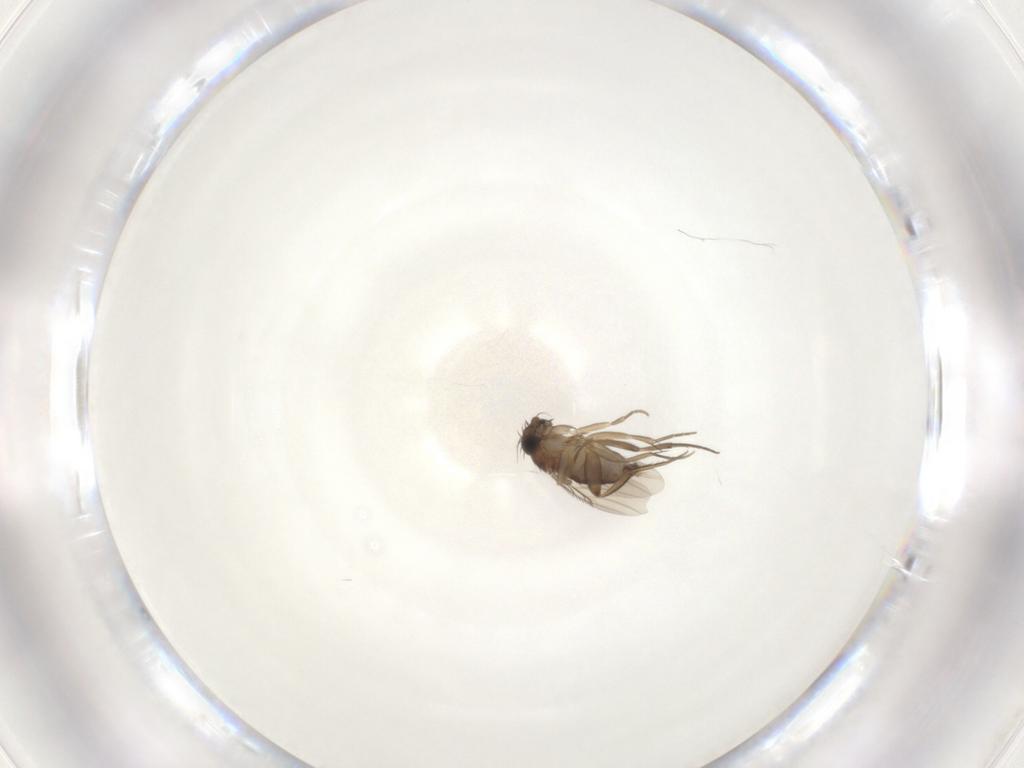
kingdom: Animalia
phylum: Arthropoda
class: Insecta
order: Diptera
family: Phoridae
